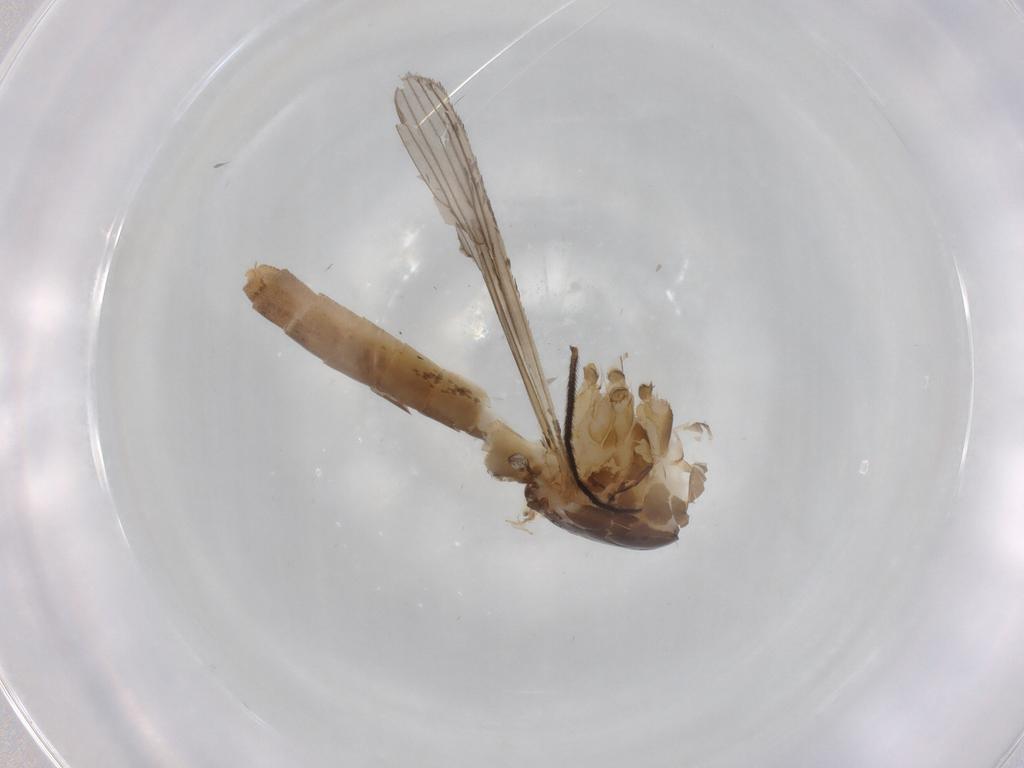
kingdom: Animalia
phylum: Arthropoda
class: Insecta
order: Diptera
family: Culicidae
